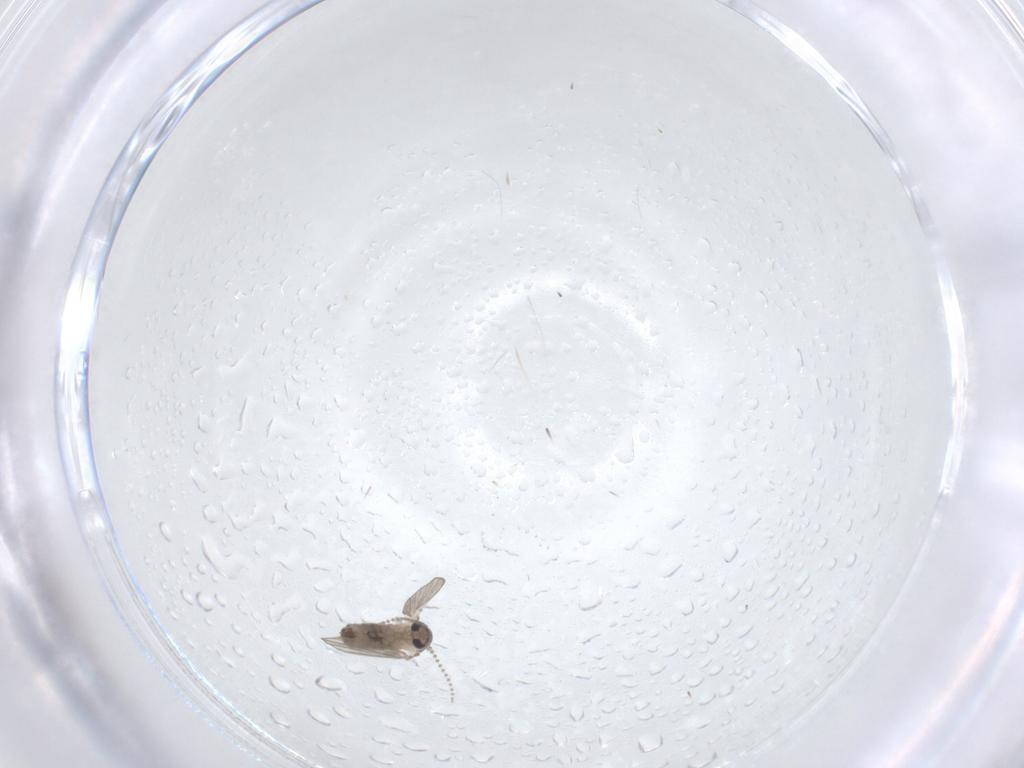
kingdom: Animalia
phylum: Arthropoda
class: Insecta
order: Diptera
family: Psychodidae
